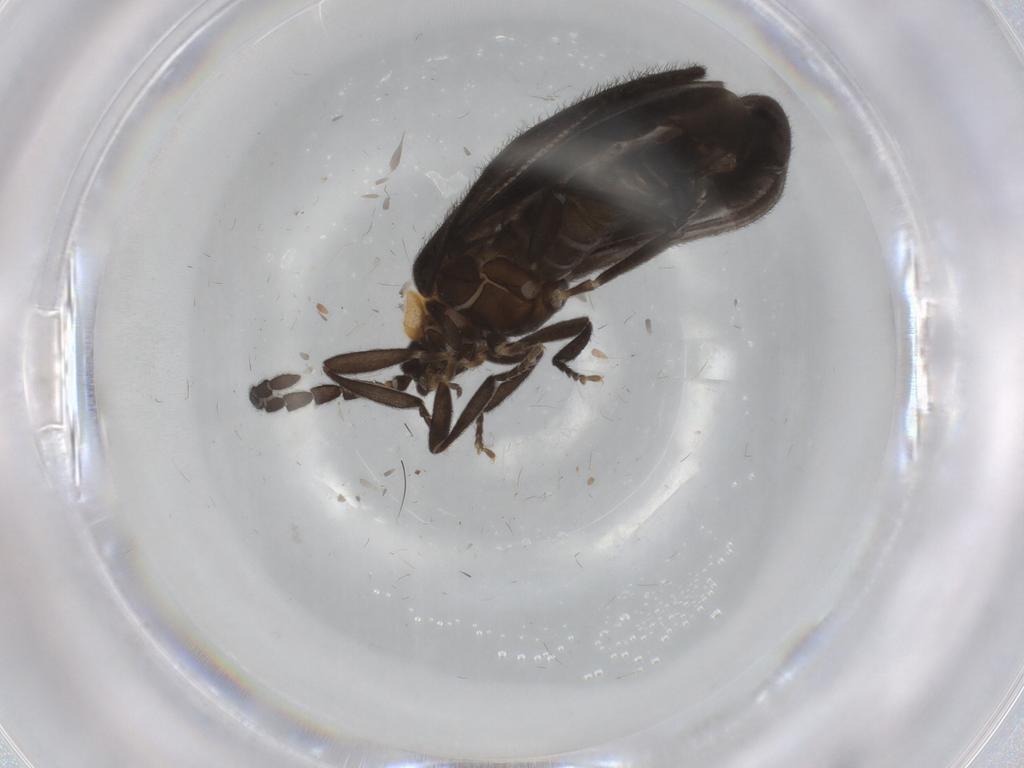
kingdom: Animalia
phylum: Arthropoda
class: Insecta
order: Coleoptera
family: Lycidae
